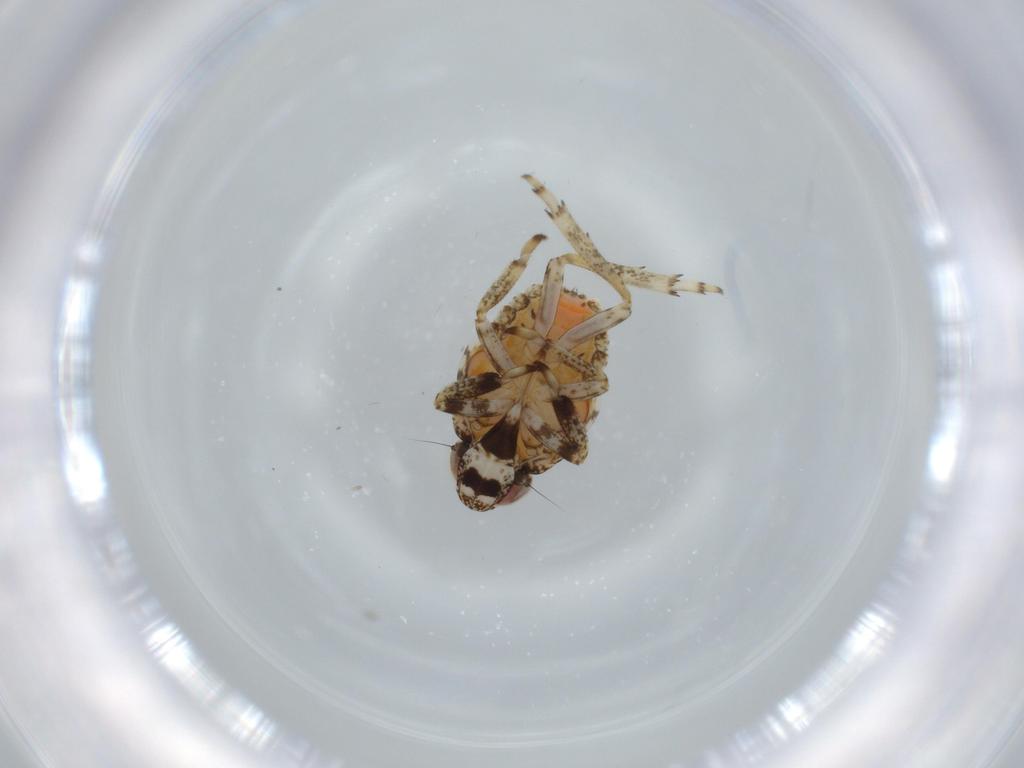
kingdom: Animalia
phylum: Arthropoda
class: Insecta
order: Hemiptera
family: Issidae
